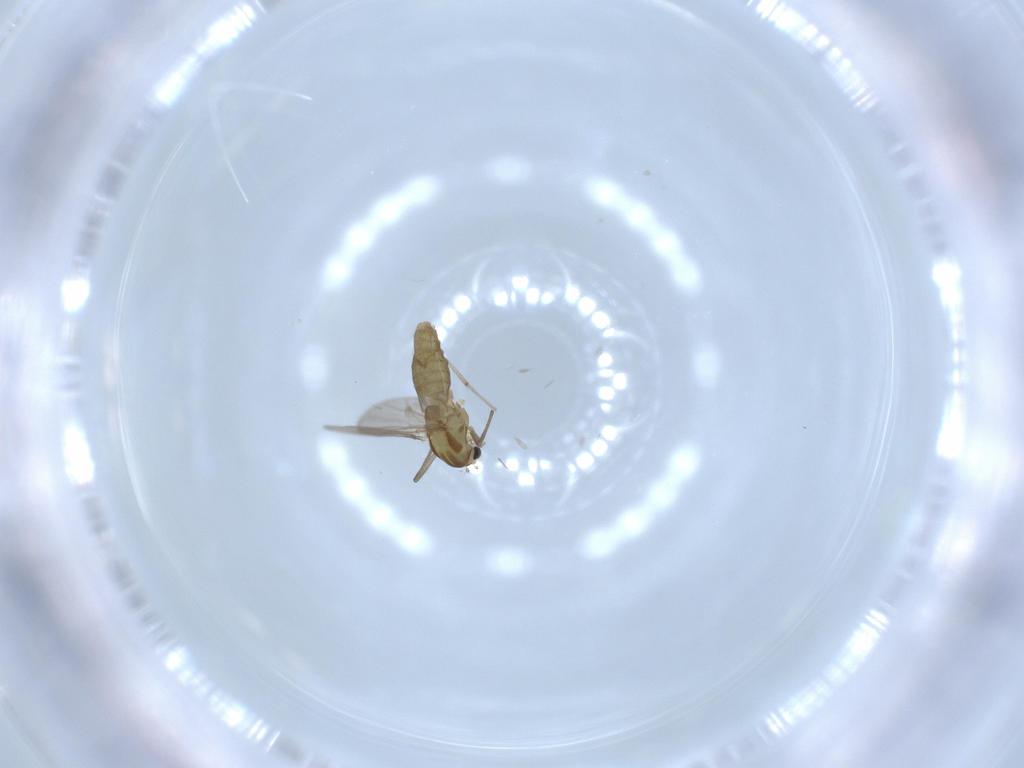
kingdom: Animalia
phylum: Arthropoda
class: Insecta
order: Diptera
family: Chironomidae
